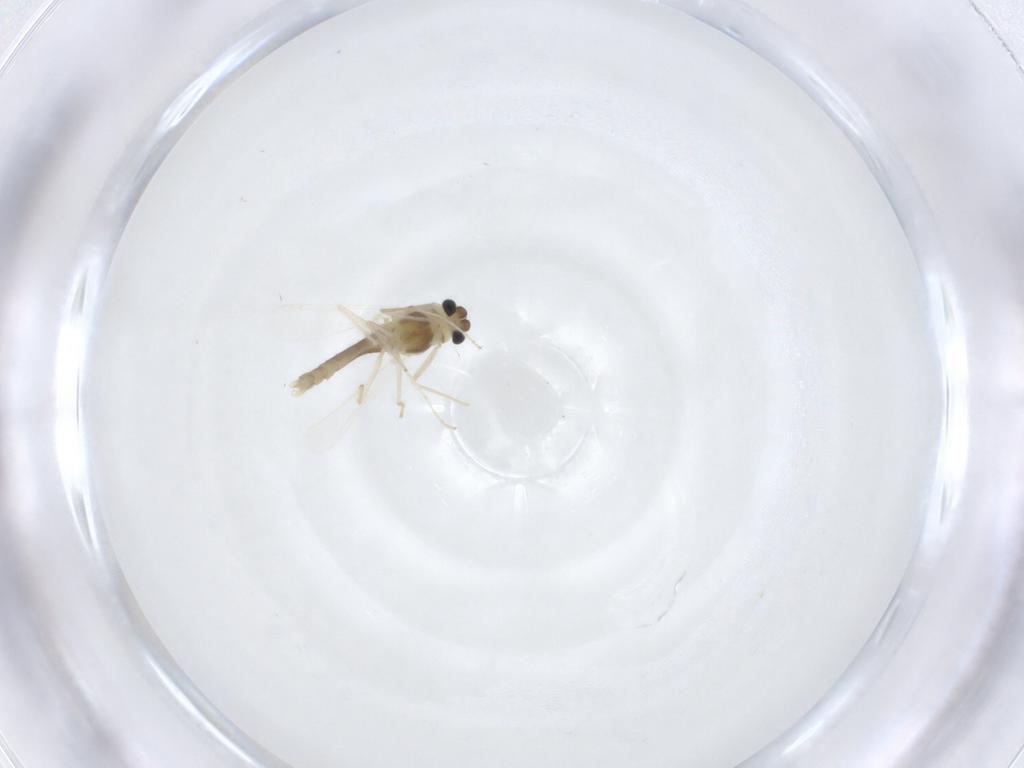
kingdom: Animalia
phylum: Arthropoda
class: Insecta
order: Diptera
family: Chironomidae
